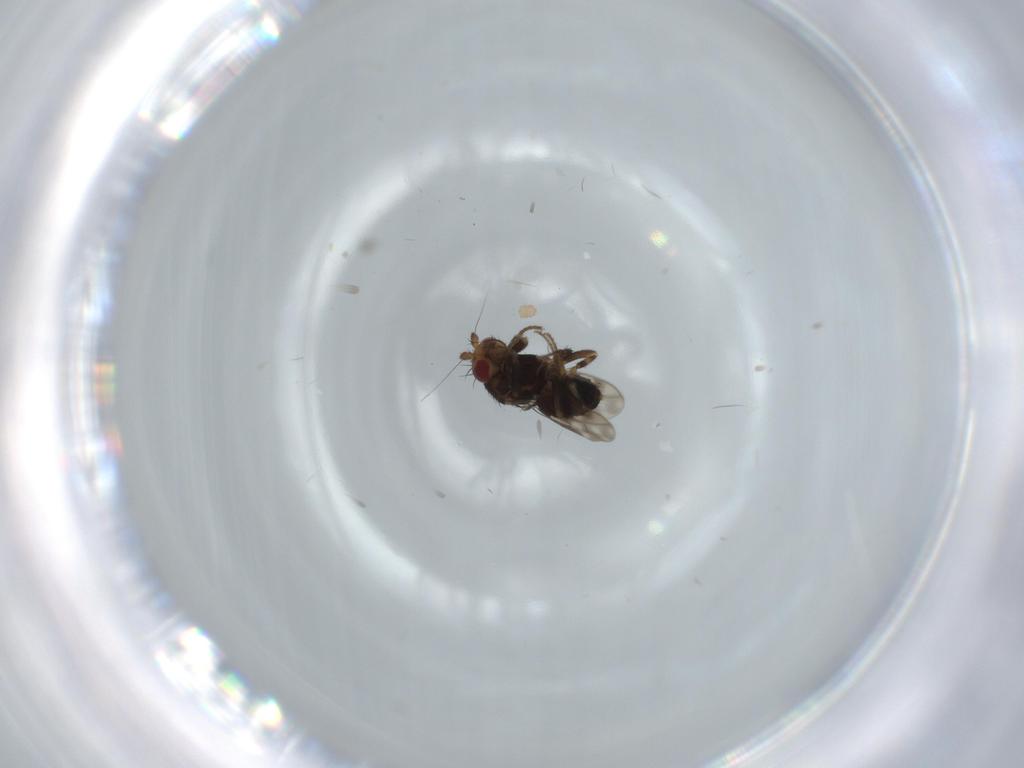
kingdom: Animalia
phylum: Arthropoda
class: Insecta
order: Diptera
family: Sphaeroceridae
